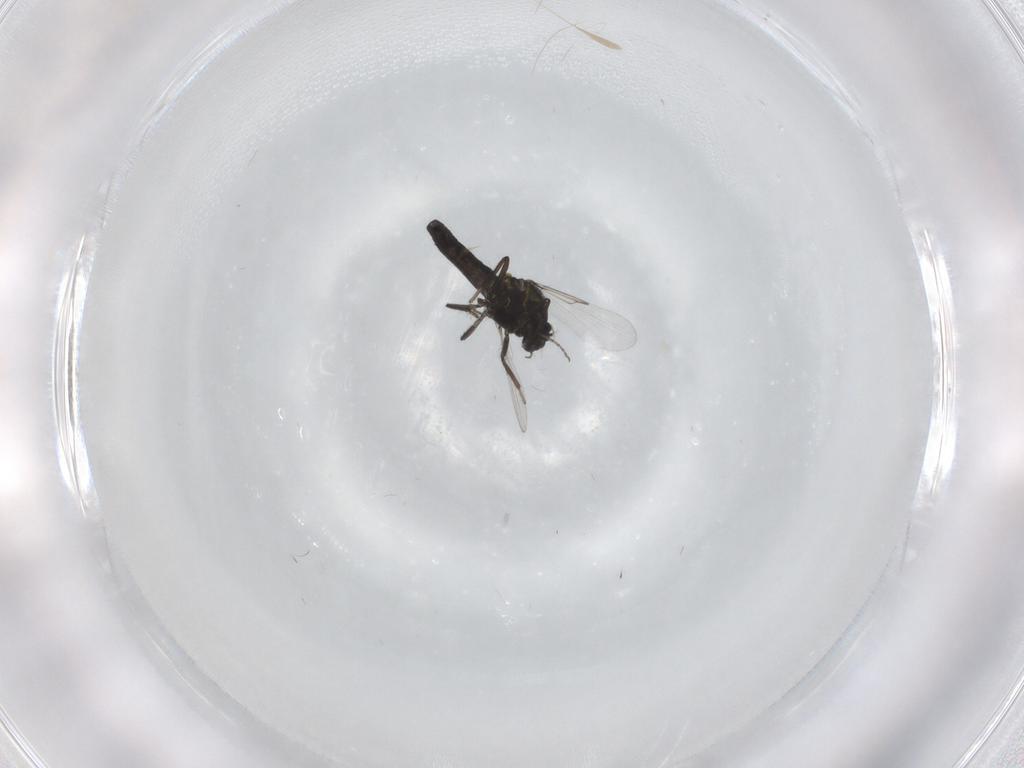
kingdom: Animalia
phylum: Arthropoda
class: Insecta
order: Diptera
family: Ceratopogonidae
